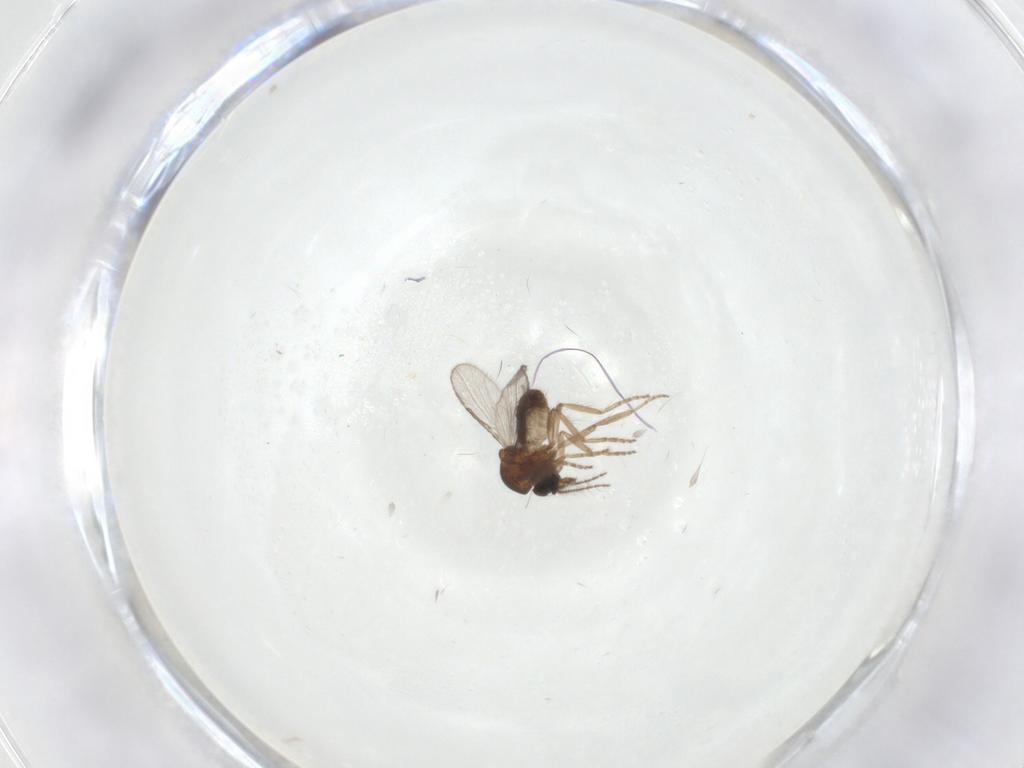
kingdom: Animalia
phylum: Arthropoda
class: Insecta
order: Diptera
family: Ceratopogonidae
